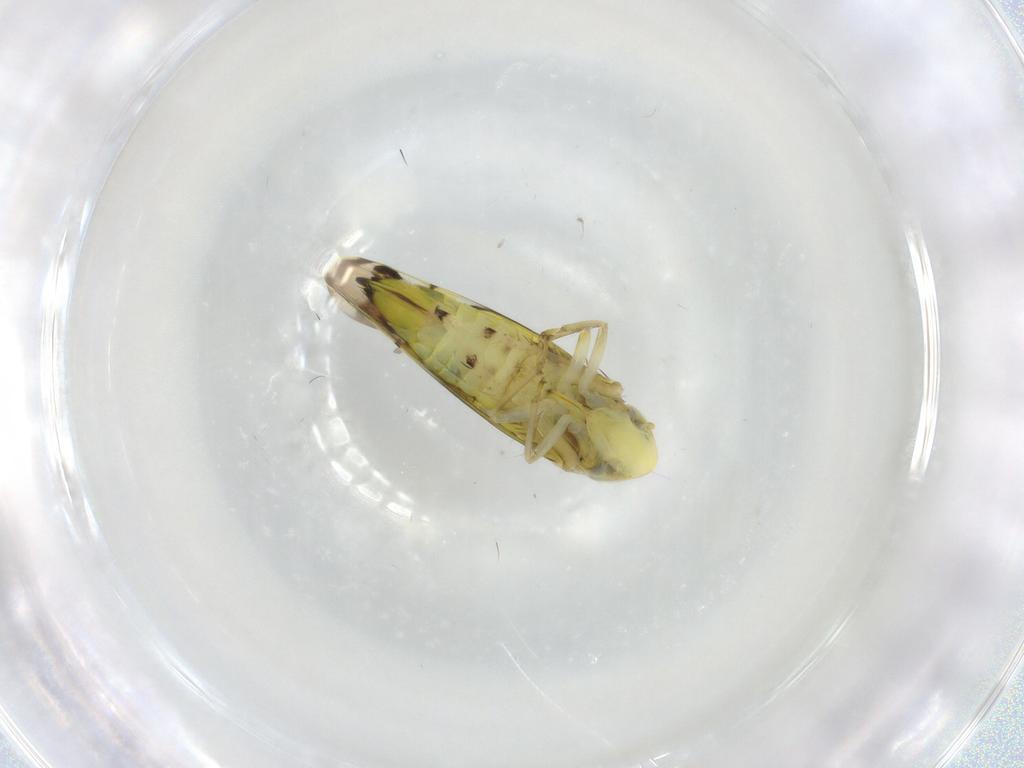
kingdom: Animalia
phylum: Arthropoda
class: Insecta
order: Hemiptera
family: Cicadellidae
